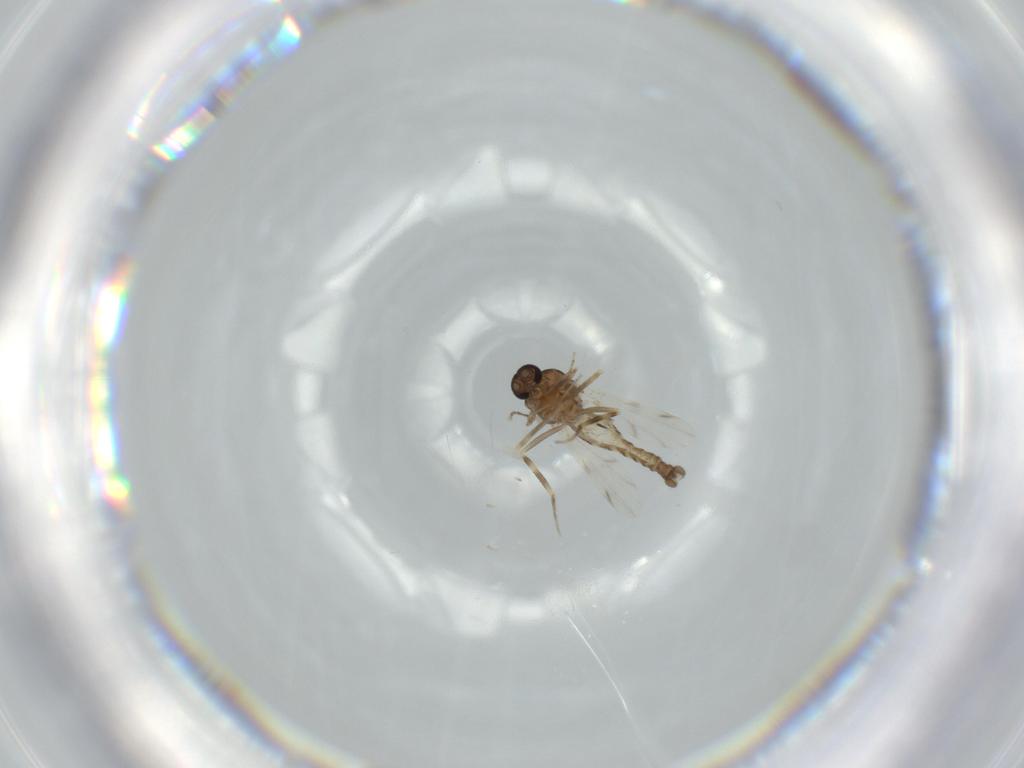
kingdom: Animalia
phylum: Arthropoda
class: Insecta
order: Diptera
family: Ceratopogonidae
